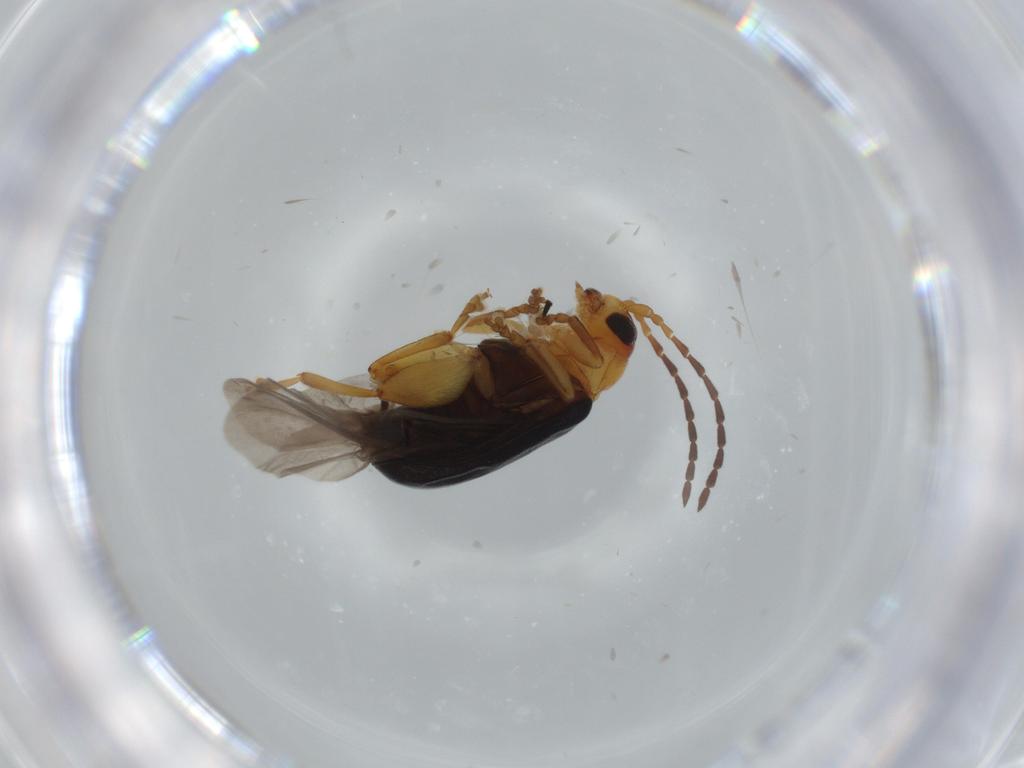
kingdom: Animalia
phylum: Arthropoda
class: Insecta
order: Coleoptera
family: Chrysomelidae
